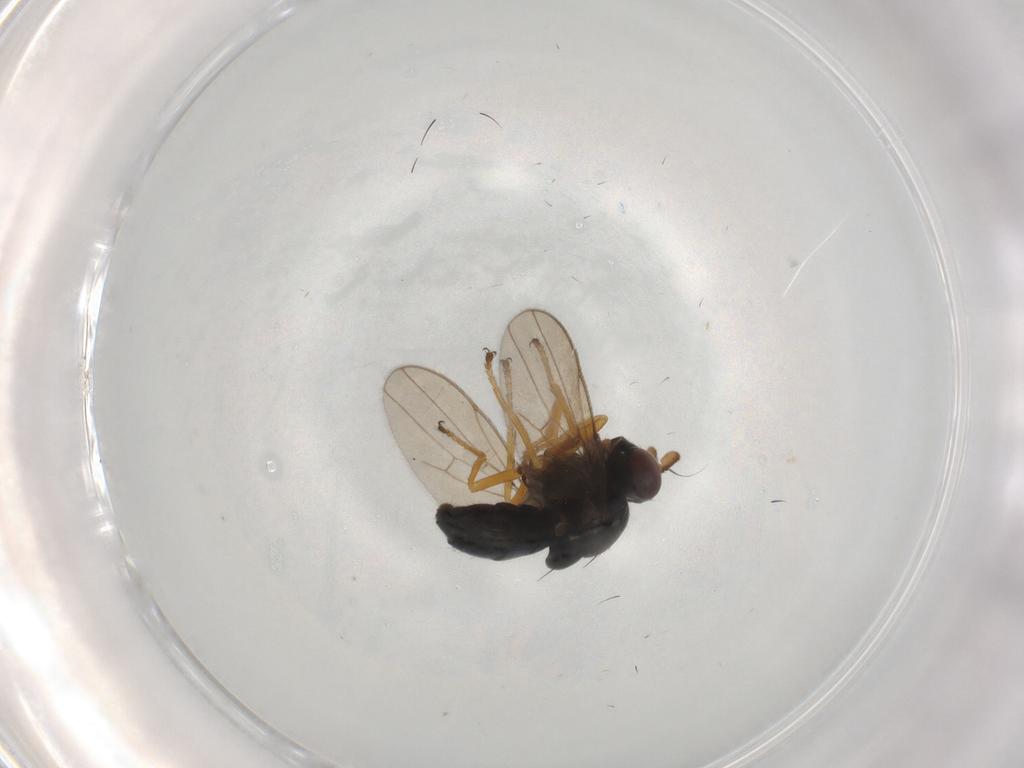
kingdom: Animalia
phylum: Arthropoda
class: Insecta
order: Diptera
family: Ephydridae
